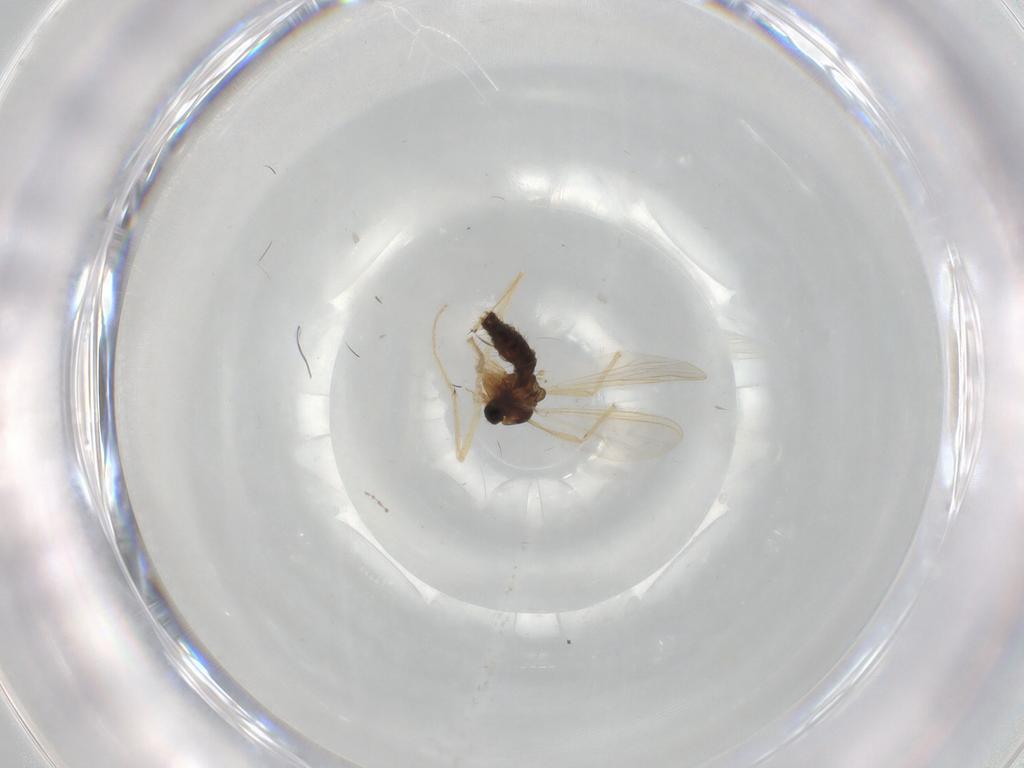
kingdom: Animalia
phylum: Arthropoda
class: Insecta
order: Diptera
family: Chironomidae
